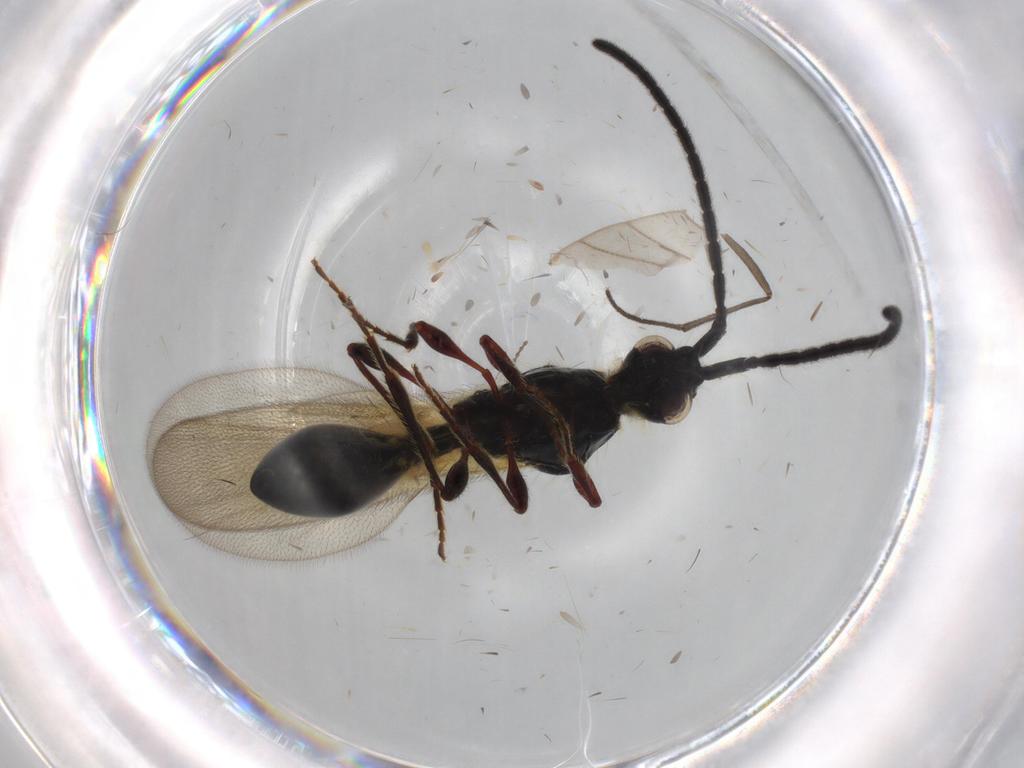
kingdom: Animalia
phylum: Arthropoda
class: Insecta
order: Hymenoptera
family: Diapriidae
